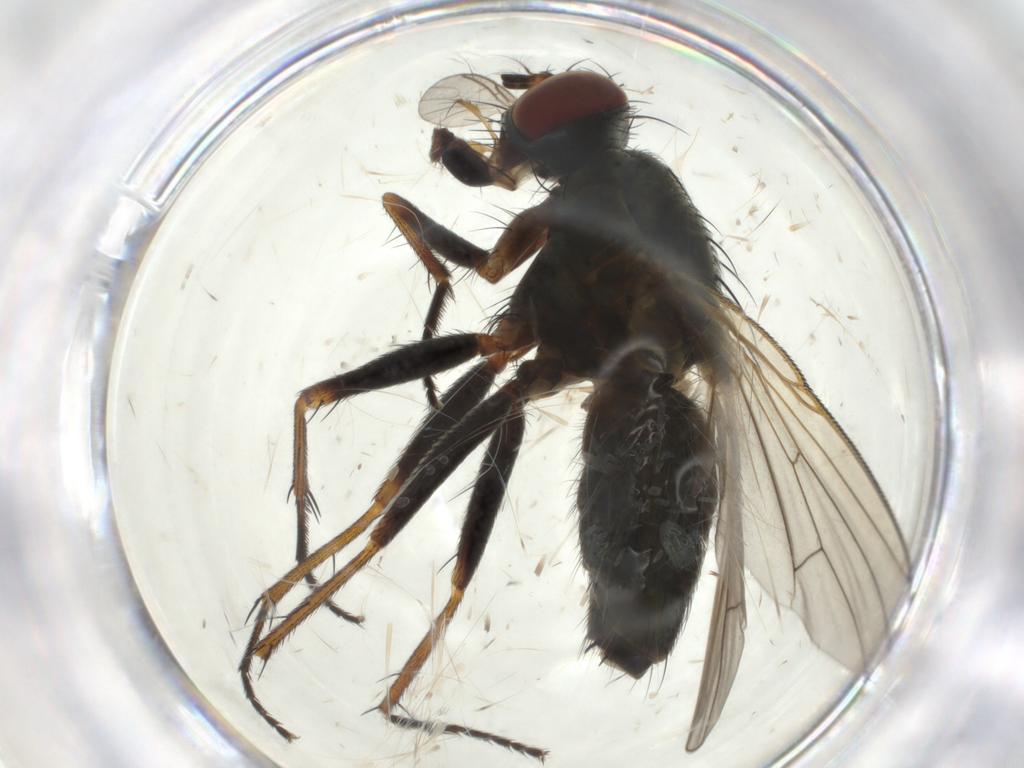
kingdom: Animalia
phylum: Arthropoda
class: Insecta
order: Diptera
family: Muscidae
